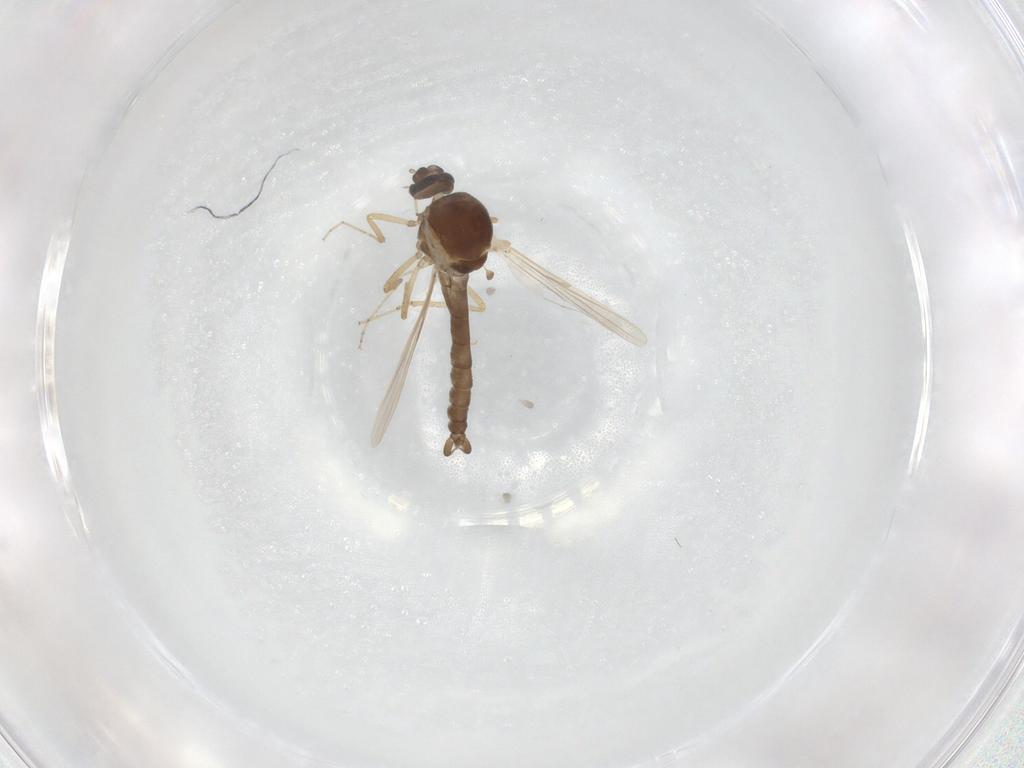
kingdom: Animalia
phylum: Arthropoda
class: Insecta
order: Diptera
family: Ceratopogonidae
